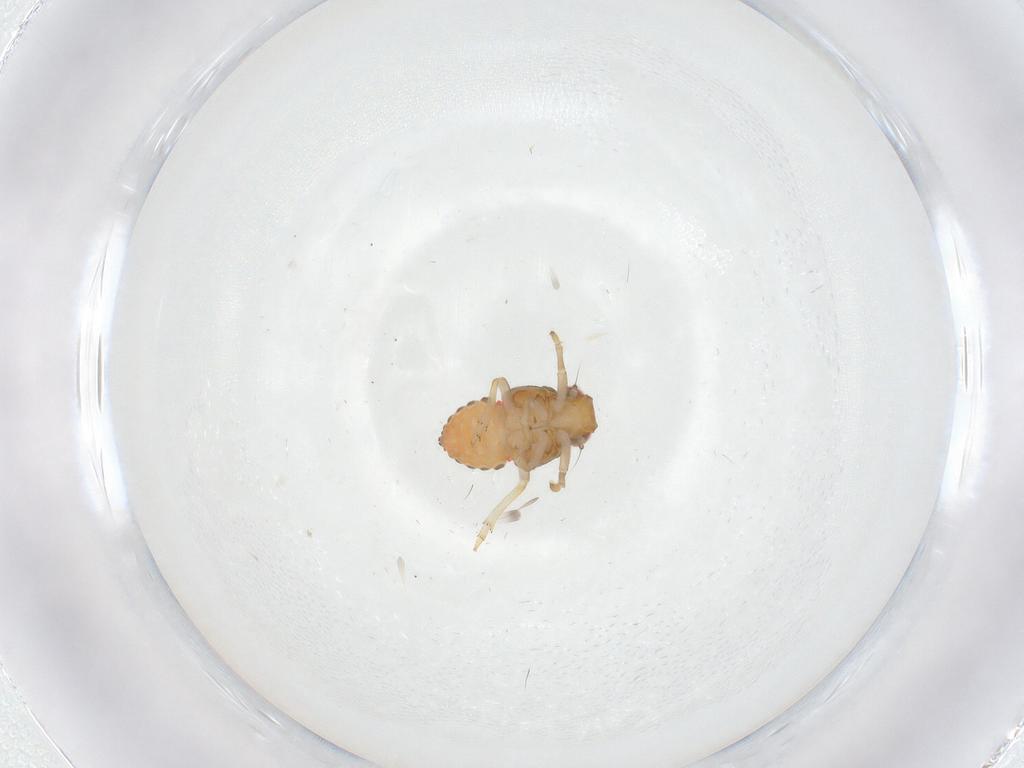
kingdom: Animalia
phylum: Arthropoda
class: Insecta
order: Hemiptera
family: Issidae
